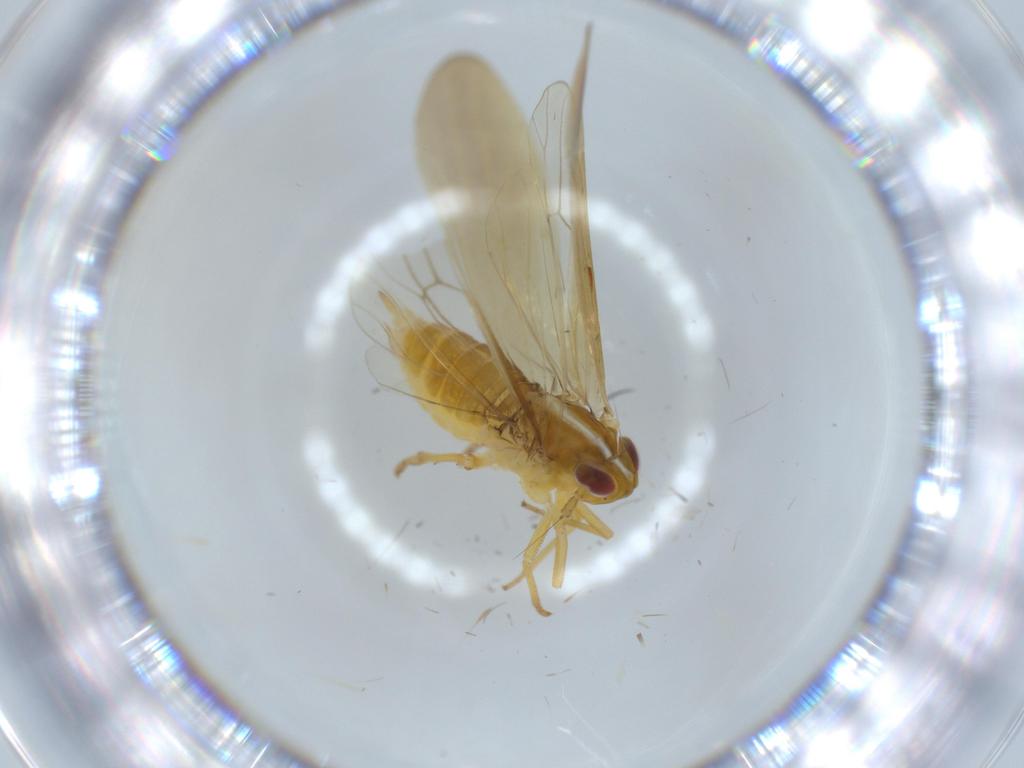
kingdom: Animalia
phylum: Arthropoda
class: Insecta
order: Hemiptera
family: Delphacidae
